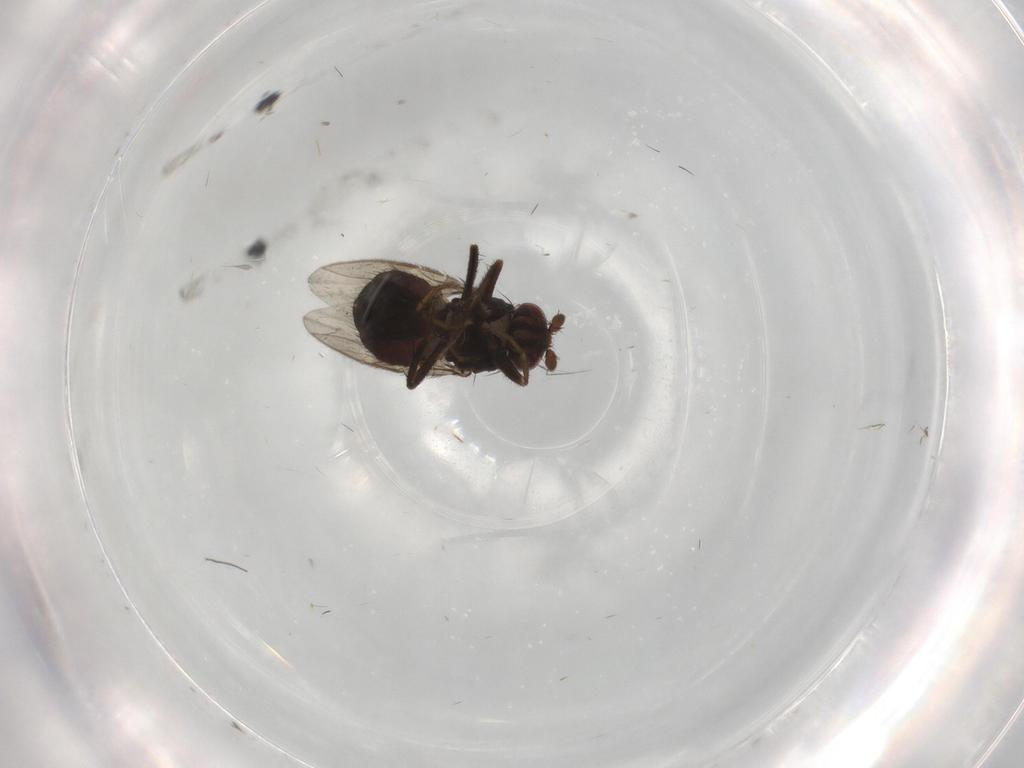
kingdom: Animalia
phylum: Arthropoda
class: Insecta
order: Diptera
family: Sphaeroceridae
